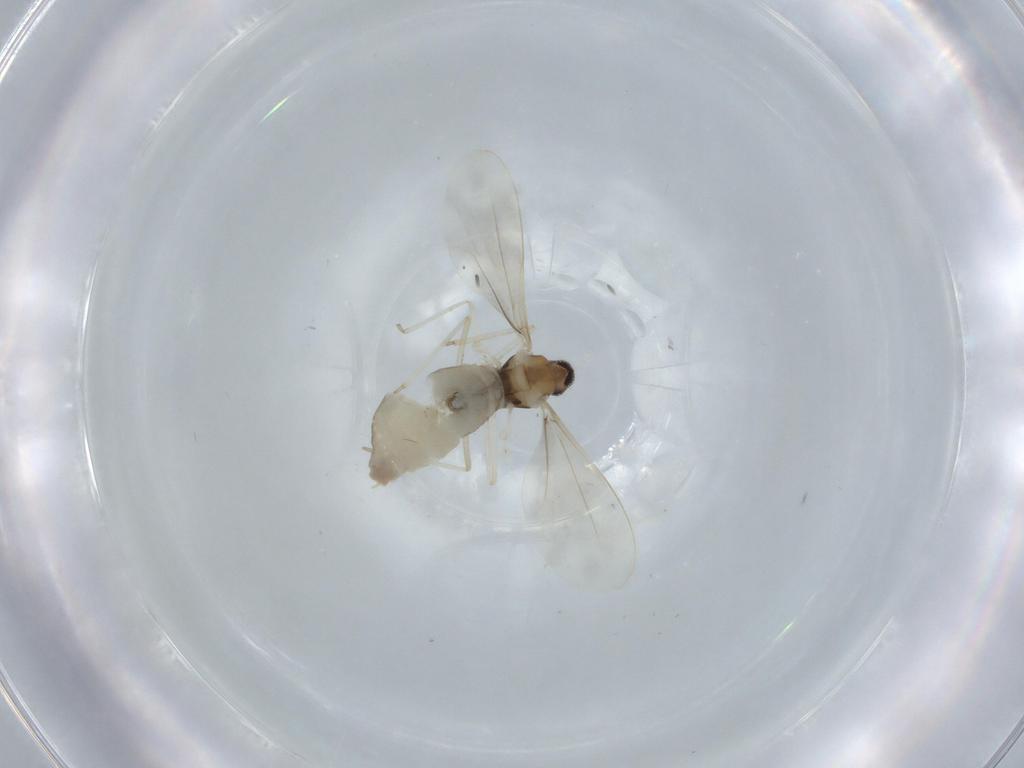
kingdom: Animalia
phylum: Arthropoda
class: Insecta
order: Diptera
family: Cecidomyiidae
